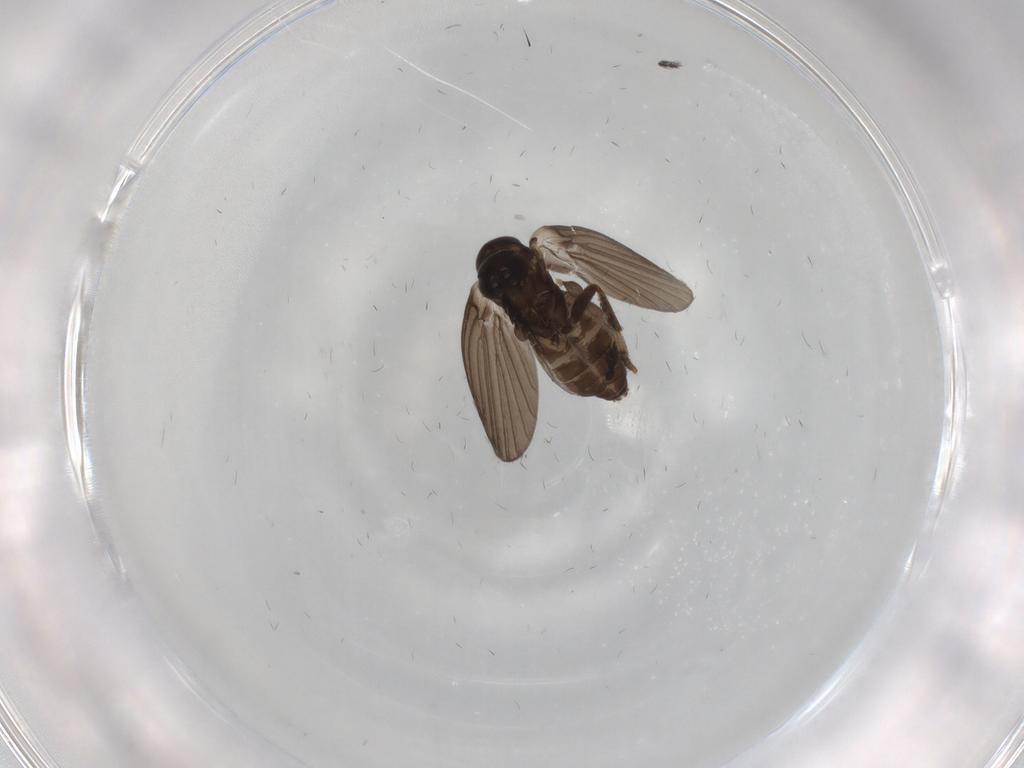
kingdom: Animalia
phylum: Arthropoda
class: Insecta
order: Diptera
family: Psychodidae
